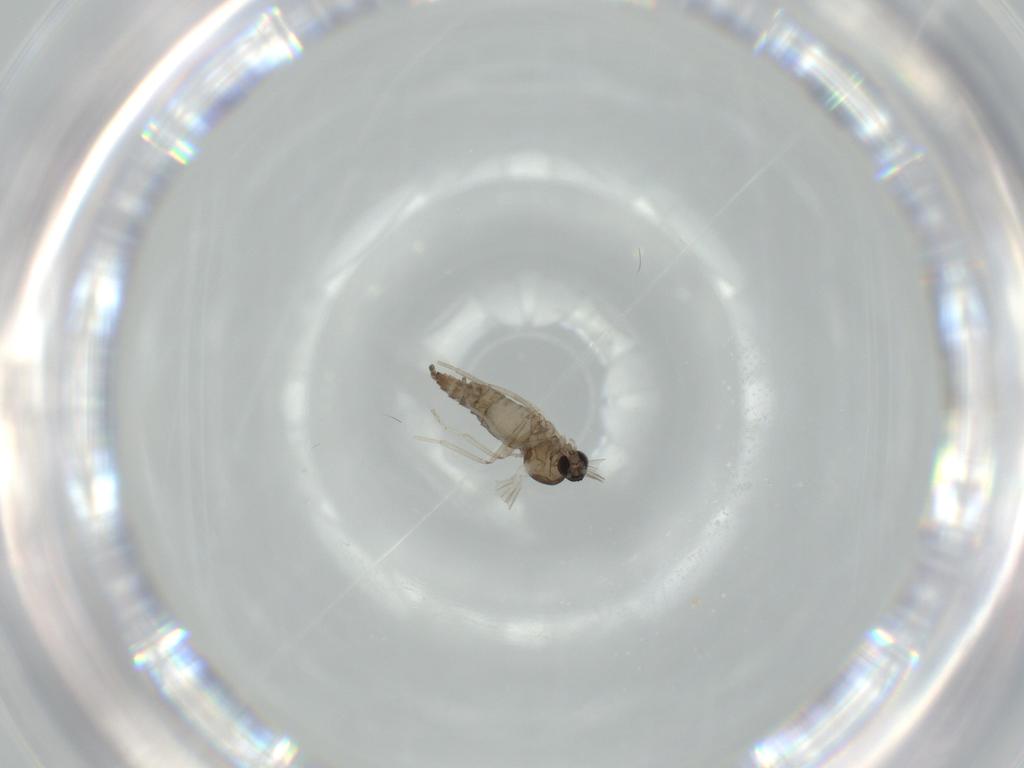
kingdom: Animalia
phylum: Arthropoda
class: Insecta
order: Diptera
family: Cecidomyiidae
